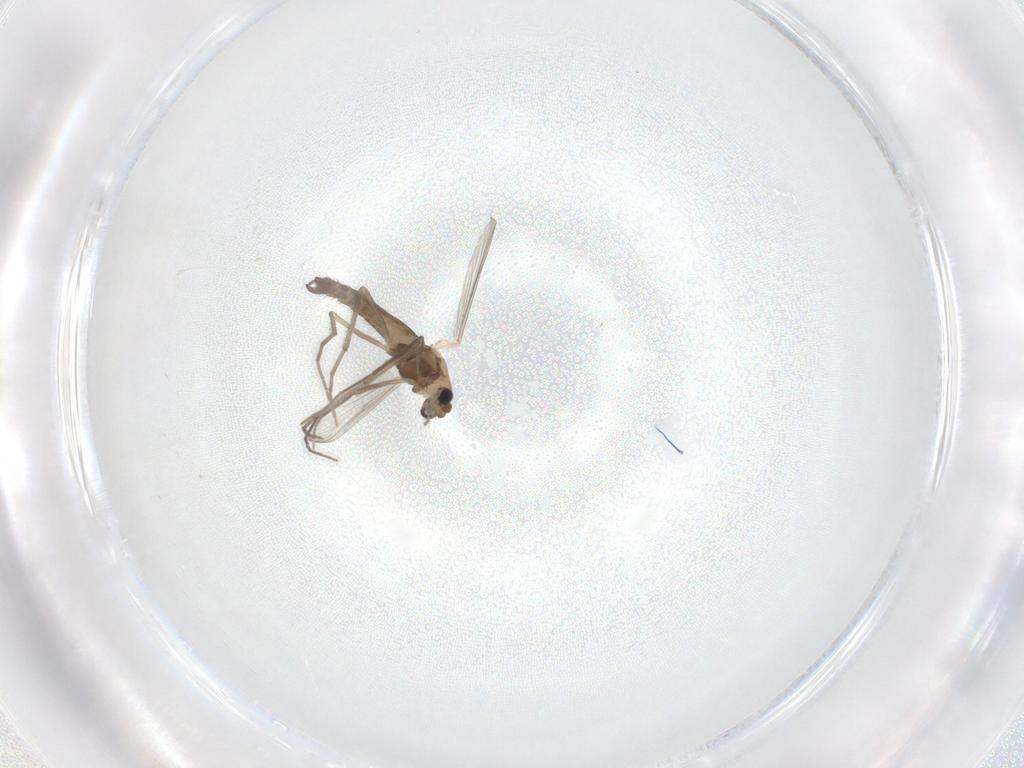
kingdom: Animalia
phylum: Arthropoda
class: Insecta
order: Diptera
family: Chironomidae
